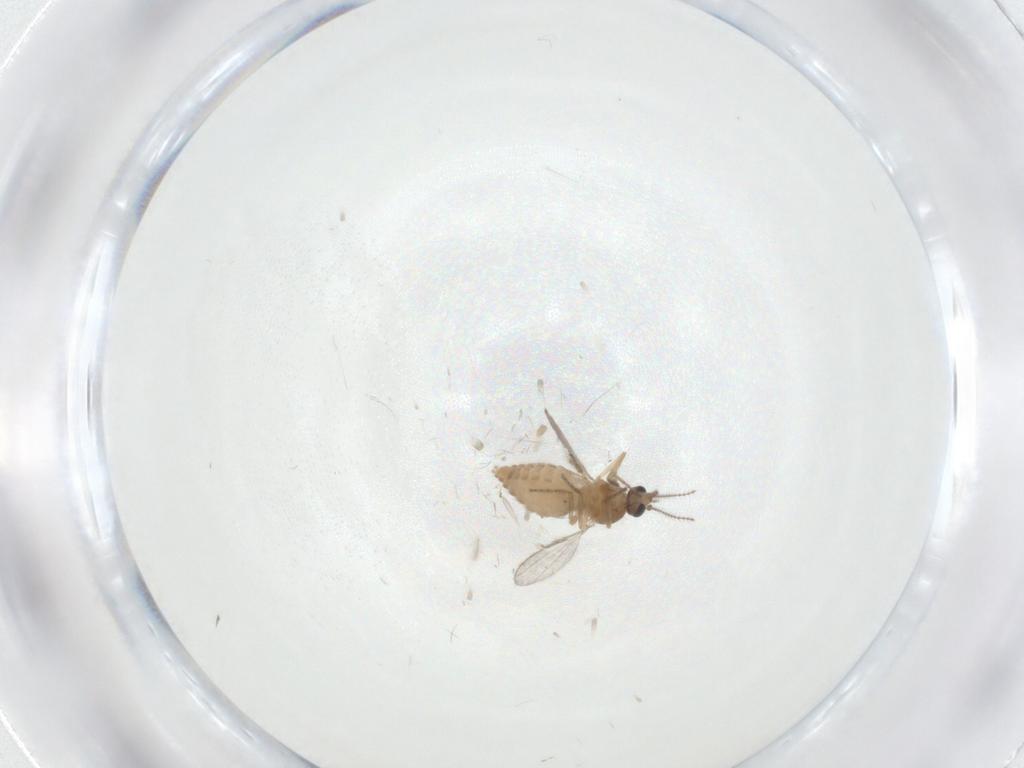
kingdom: Animalia
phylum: Arthropoda
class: Insecta
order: Diptera
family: Ceratopogonidae
